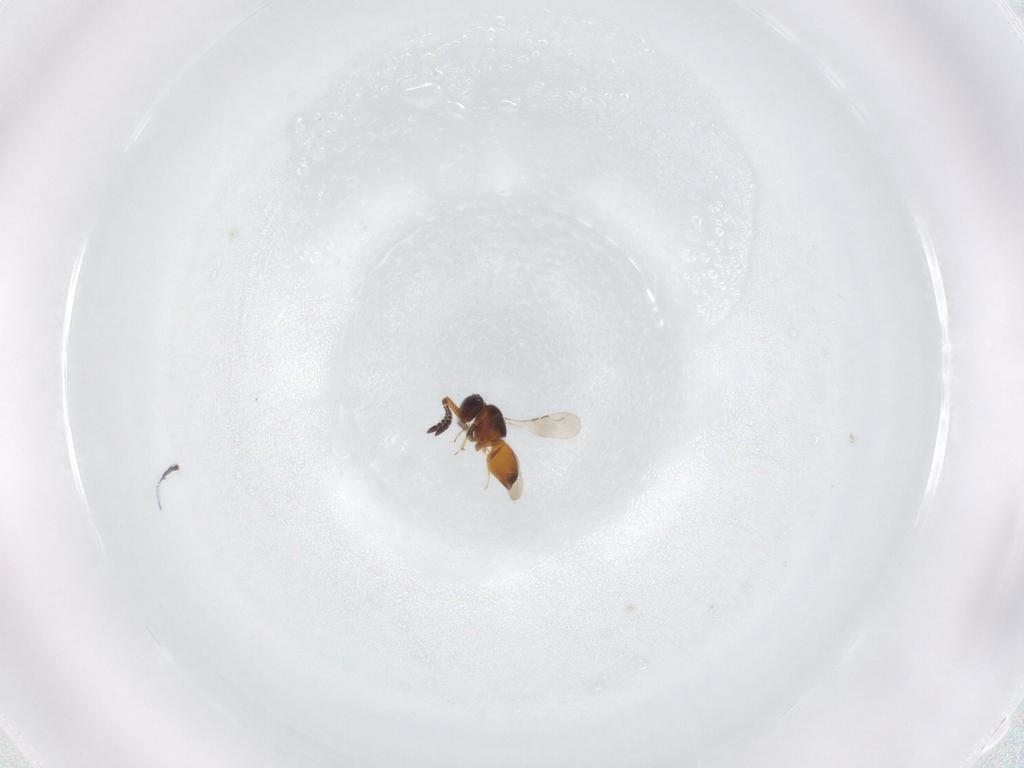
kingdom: Animalia
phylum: Arthropoda
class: Insecta
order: Hymenoptera
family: Ceraphronidae
